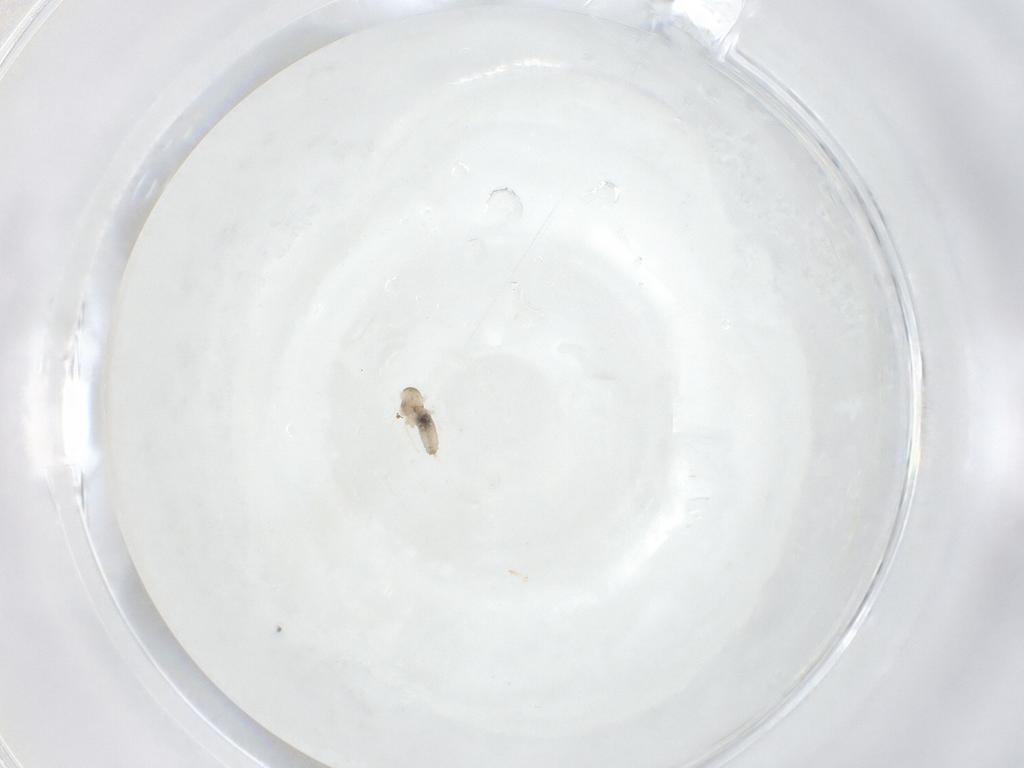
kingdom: Animalia
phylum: Arthropoda
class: Insecta
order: Diptera
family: Cecidomyiidae
